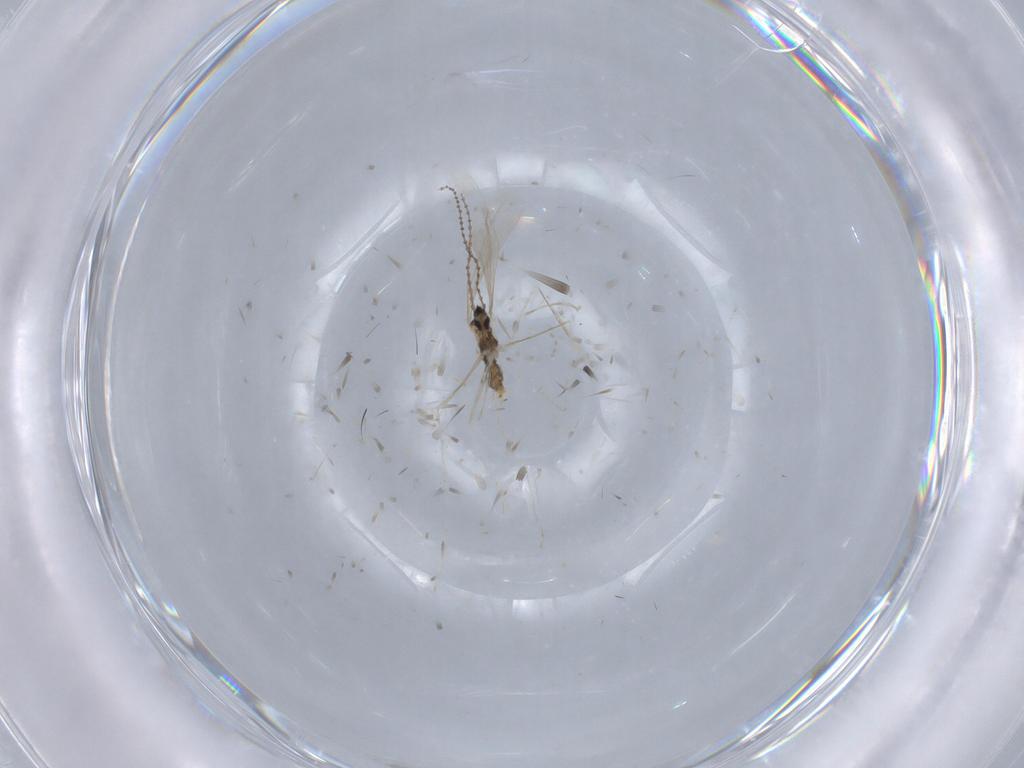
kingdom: Animalia
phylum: Arthropoda
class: Insecta
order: Diptera
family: Cecidomyiidae
